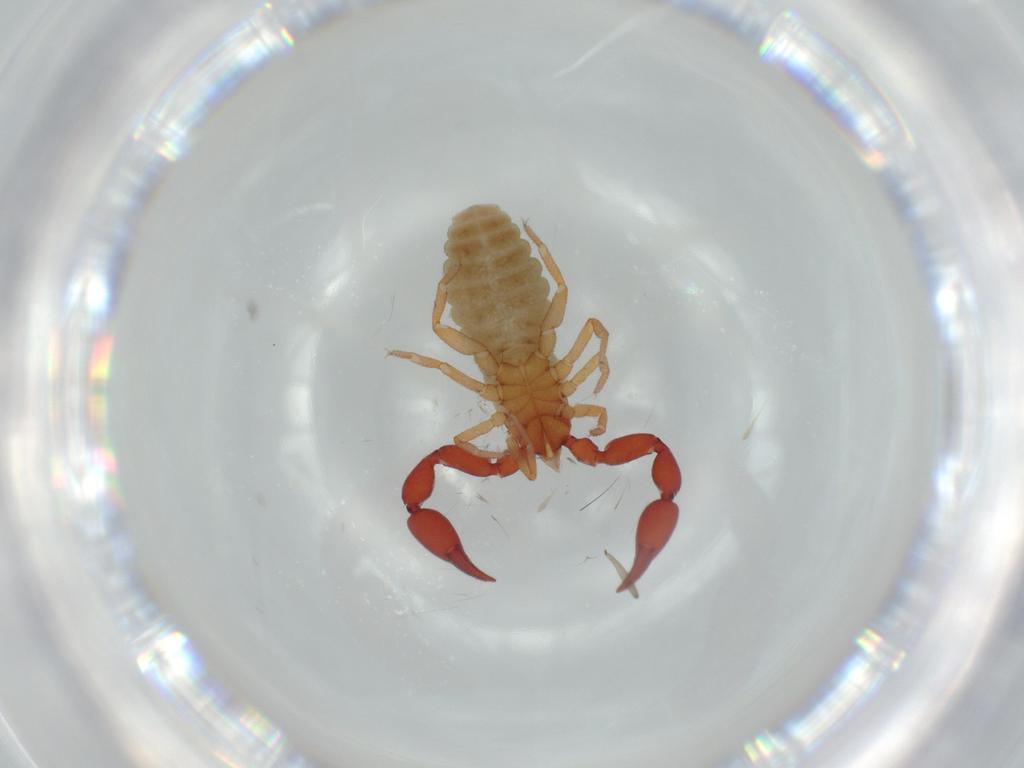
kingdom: Animalia
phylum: Arthropoda
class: Arachnida
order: Pseudoscorpiones
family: Chernetidae
